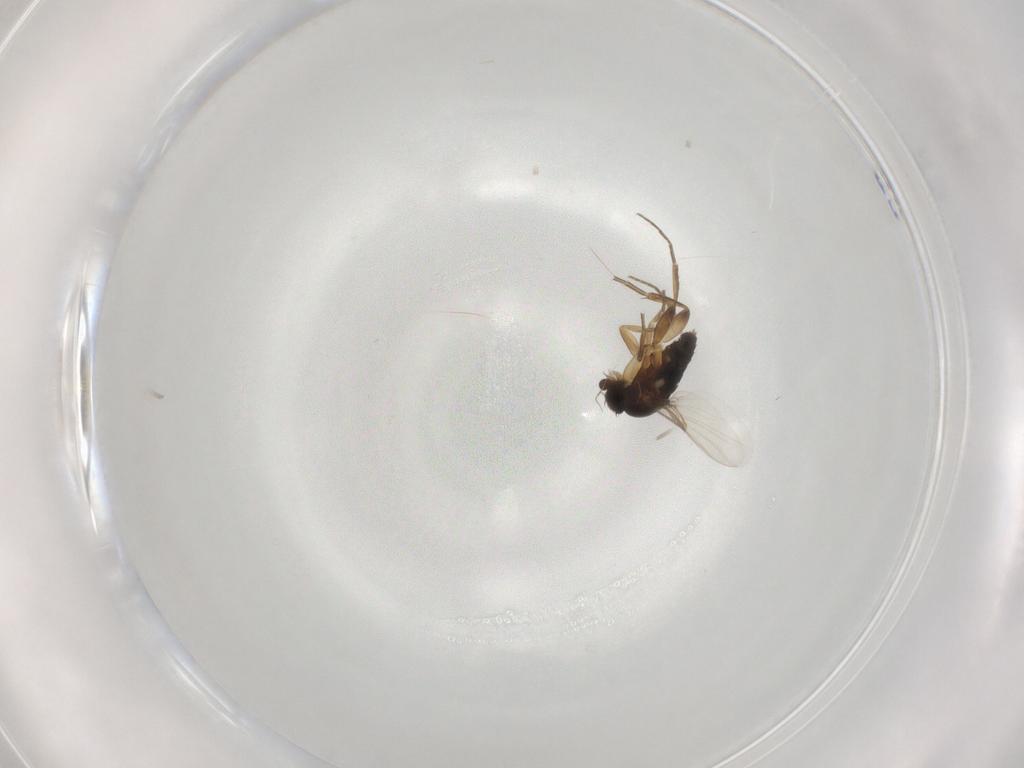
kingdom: Animalia
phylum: Arthropoda
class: Insecta
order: Diptera
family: Phoridae
